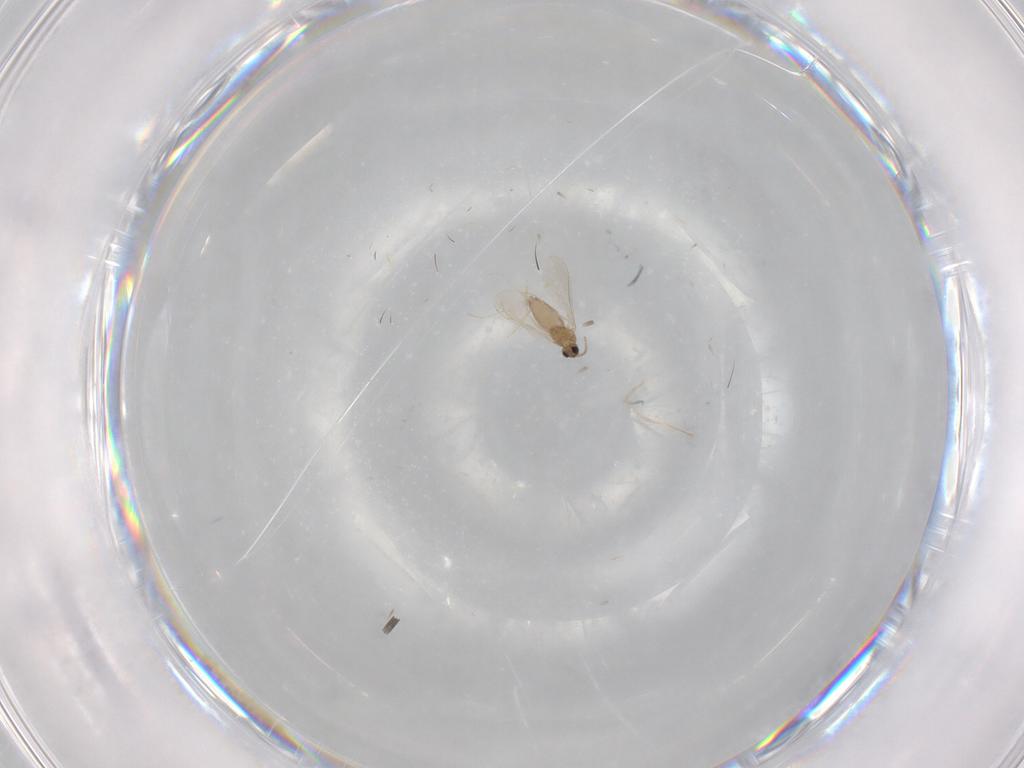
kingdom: Animalia
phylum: Arthropoda
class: Insecta
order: Diptera
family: Cecidomyiidae
